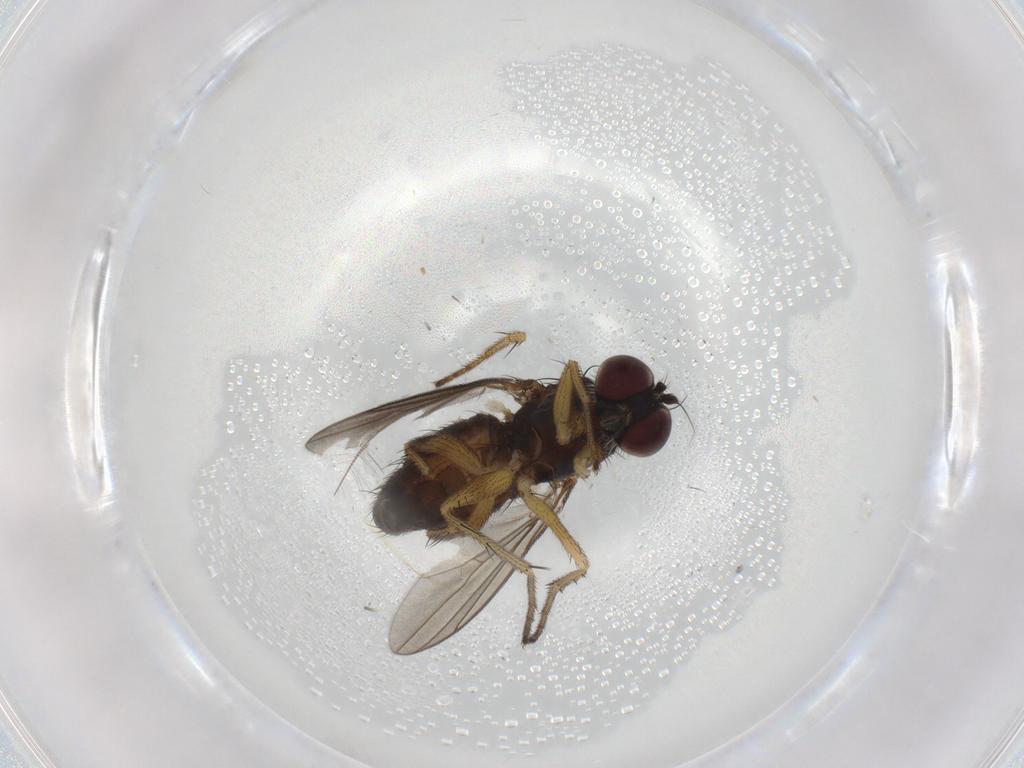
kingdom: Animalia
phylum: Arthropoda
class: Insecta
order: Diptera
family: Dolichopodidae
